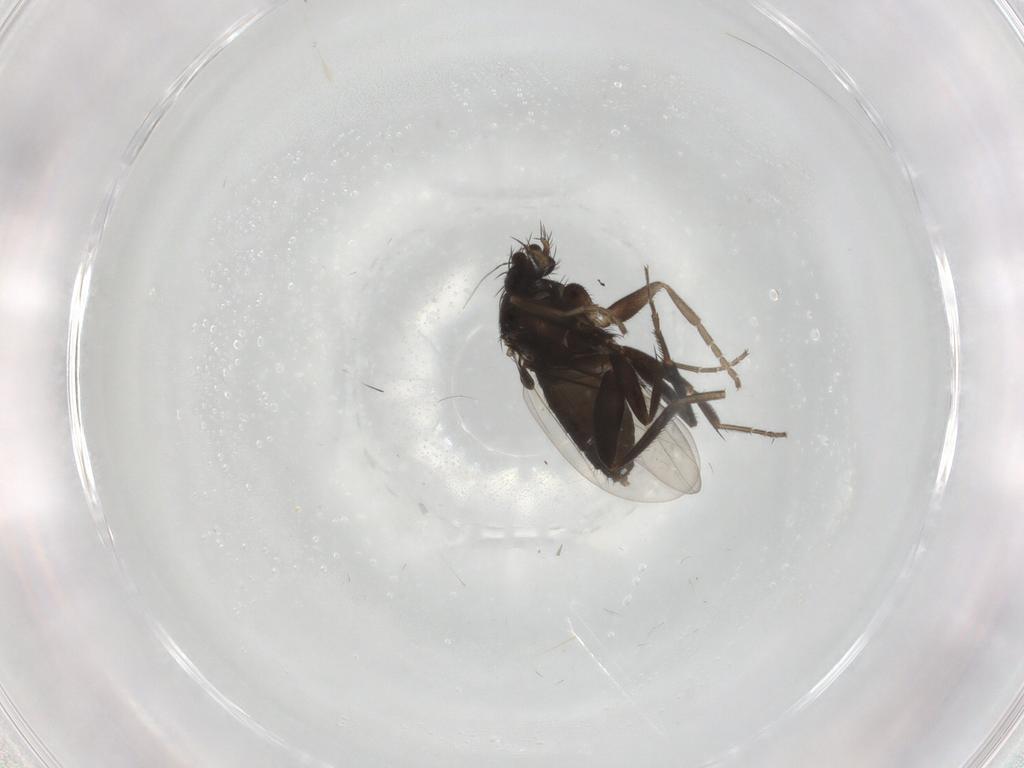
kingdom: Animalia
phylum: Arthropoda
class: Insecta
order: Diptera
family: Phoridae
